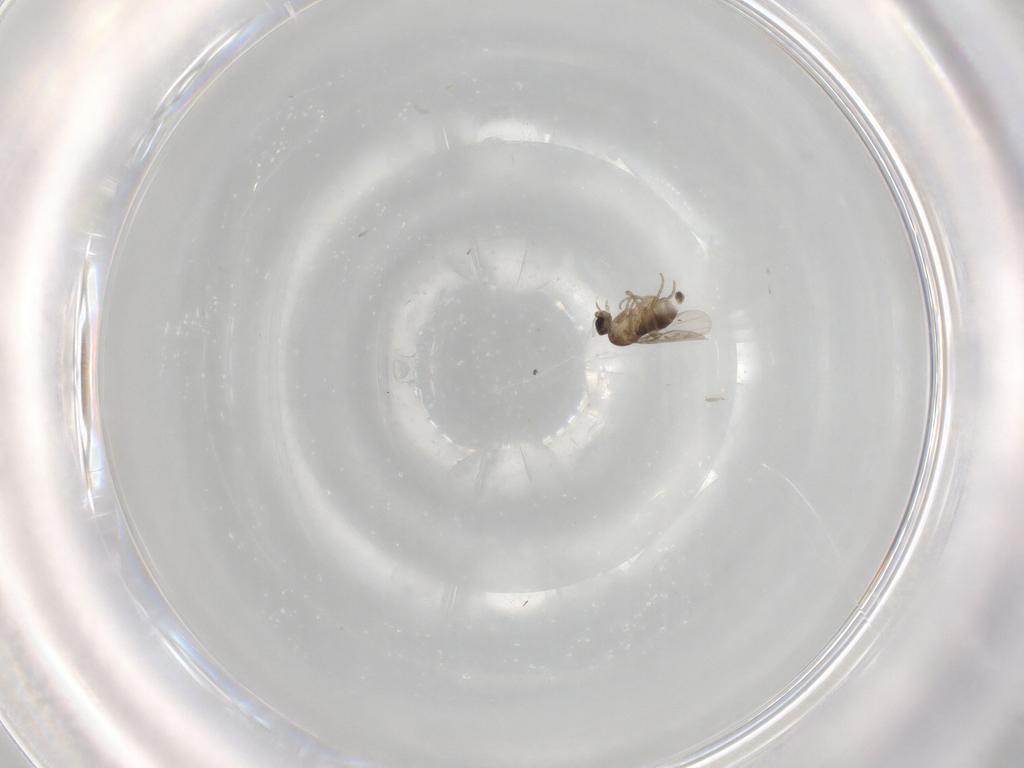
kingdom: Animalia
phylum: Arthropoda
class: Insecta
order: Diptera
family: Phoridae
